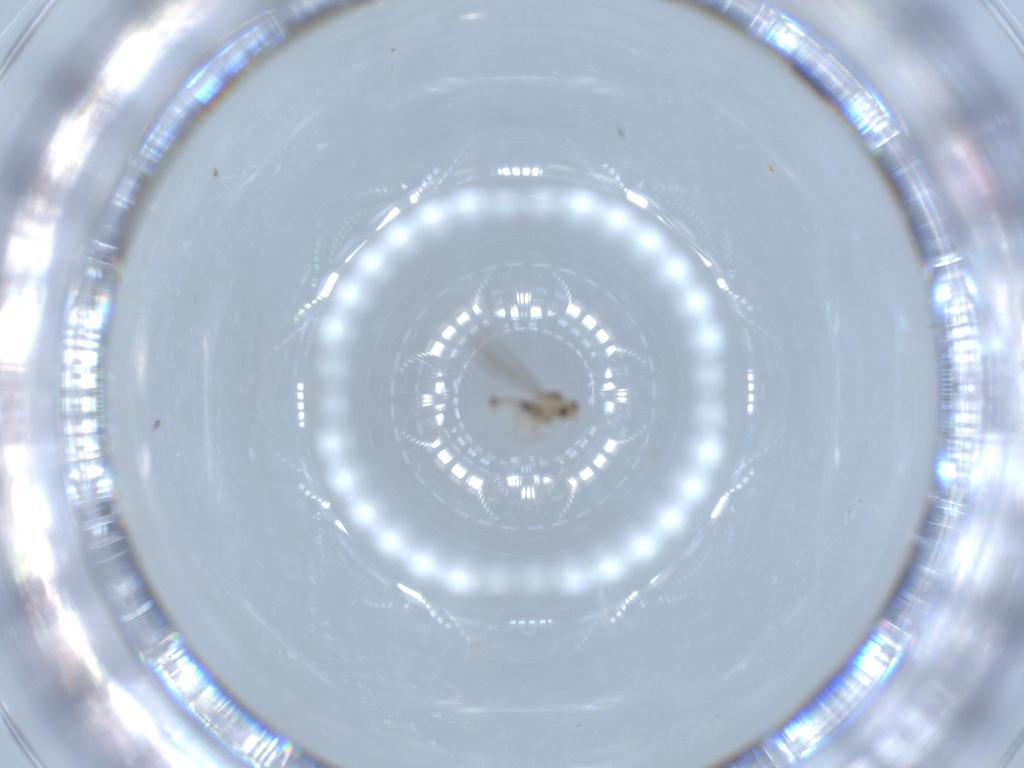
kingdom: Animalia
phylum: Arthropoda
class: Insecta
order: Diptera
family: Cecidomyiidae
